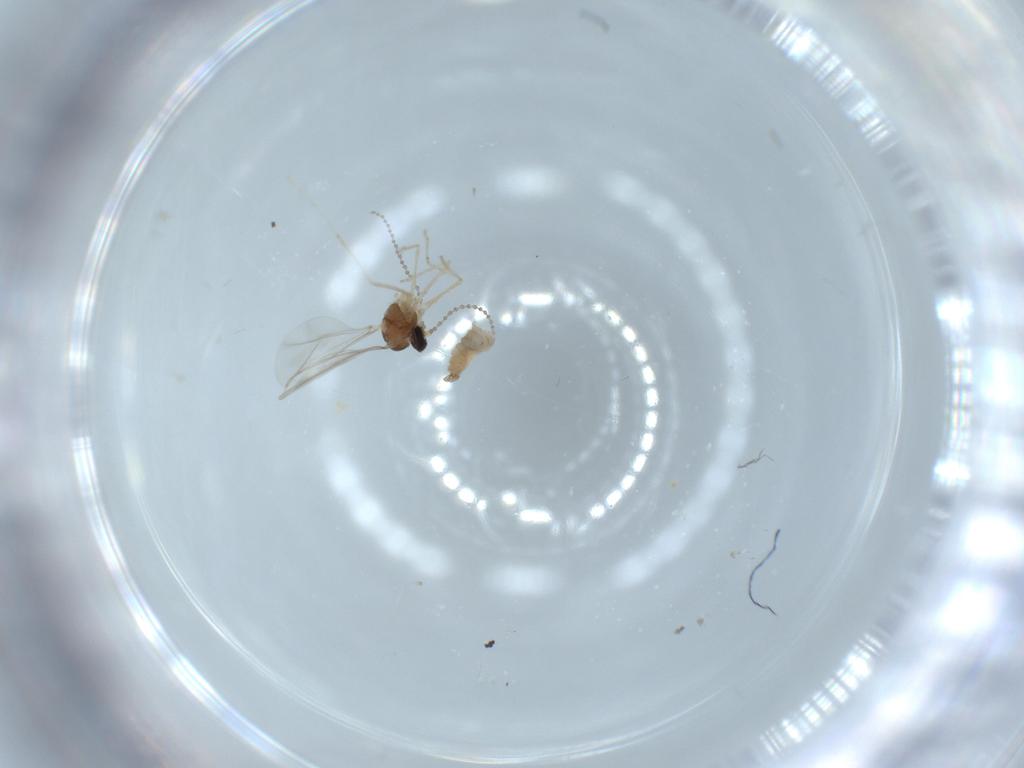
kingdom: Animalia
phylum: Arthropoda
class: Insecta
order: Diptera
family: Cecidomyiidae
